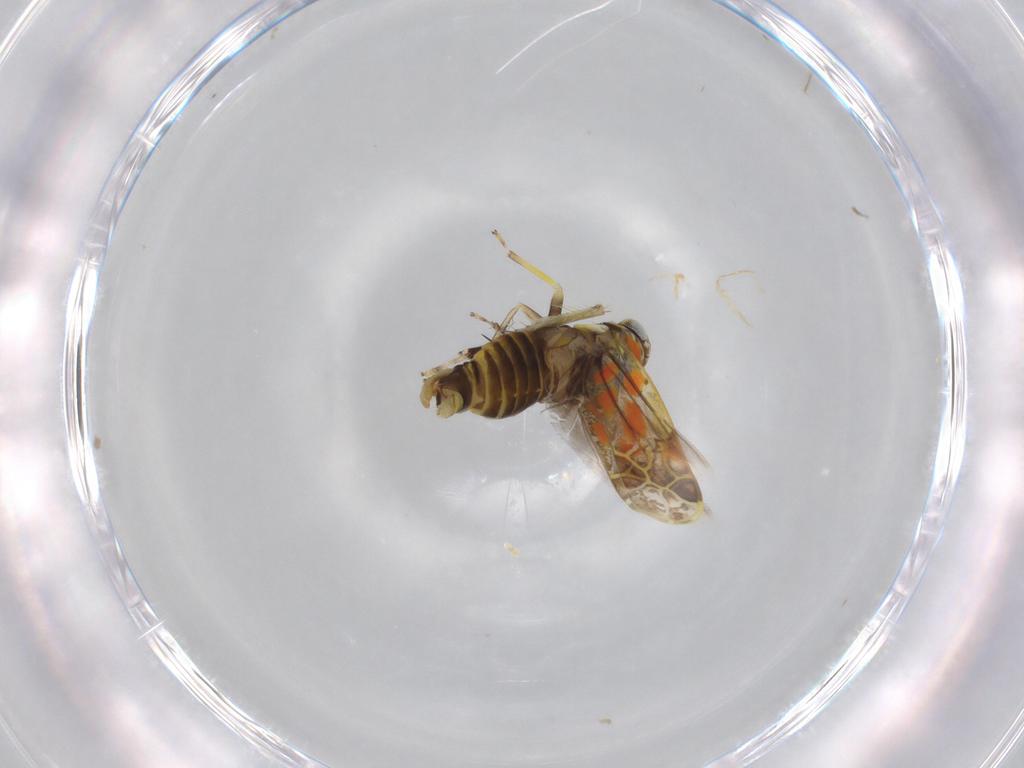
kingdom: Animalia
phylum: Arthropoda
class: Insecta
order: Hemiptera
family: Cicadellidae
